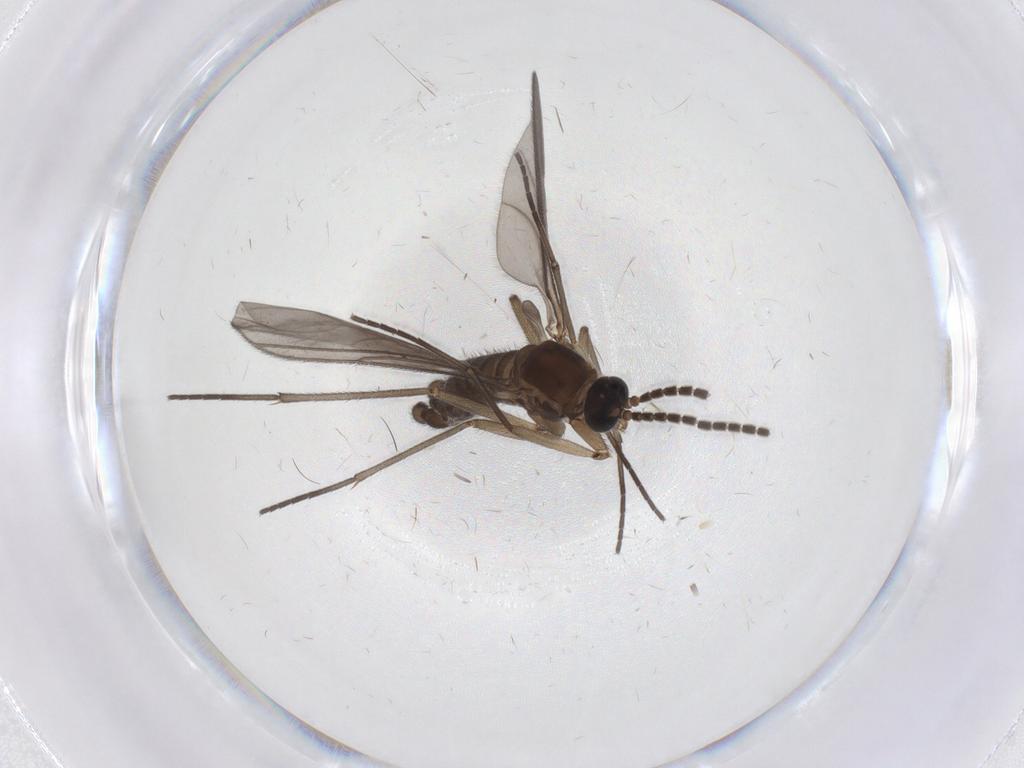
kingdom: Animalia
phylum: Arthropoda
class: Insecta
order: Diptera
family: Sciaridae
